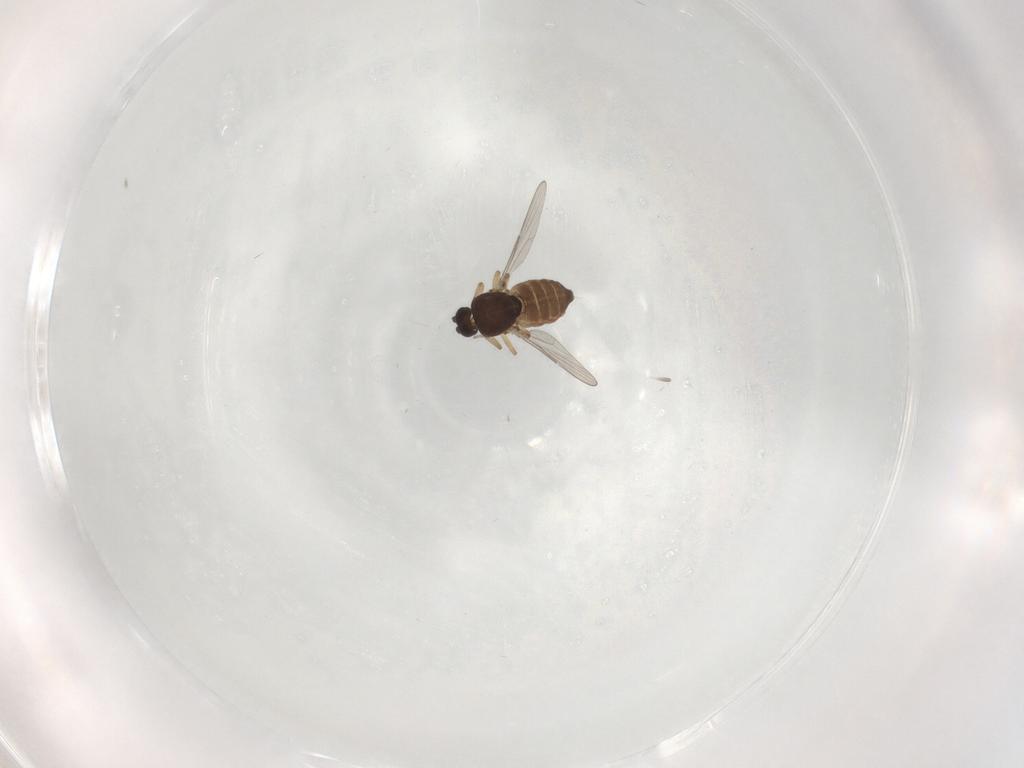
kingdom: Animalia
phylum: Arthropoda
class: Insecta
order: Diptera
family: Ceratopogonidae
